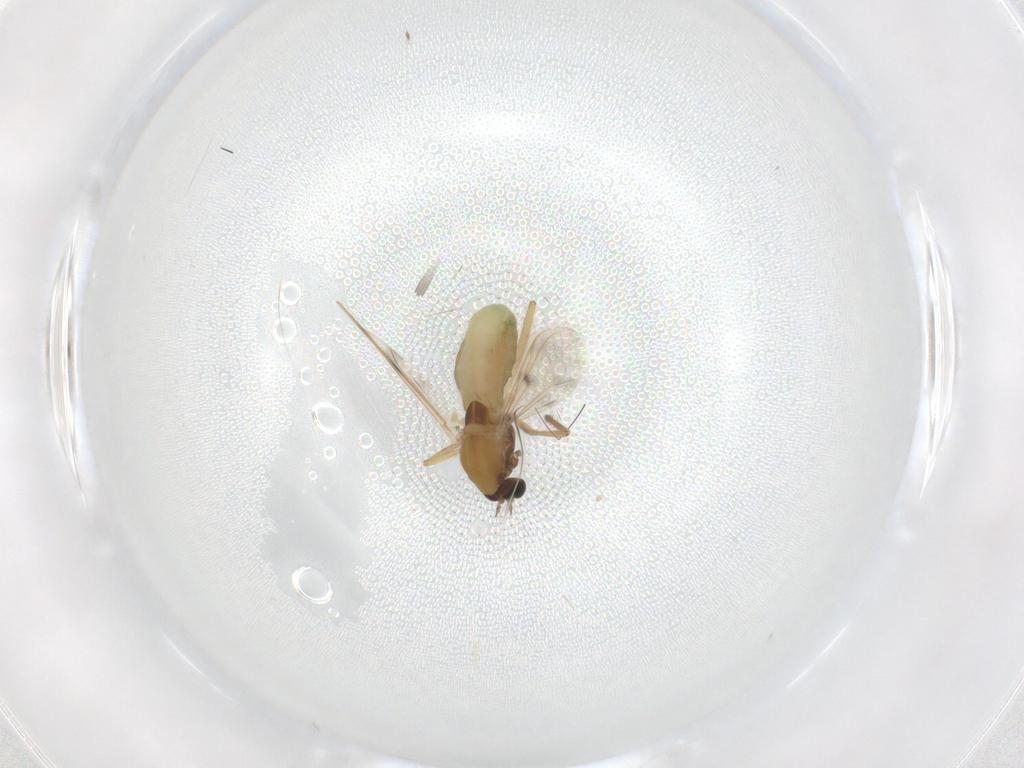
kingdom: Animalia
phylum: Arthropoda
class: Insecta
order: Diptera
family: Chironomidae
